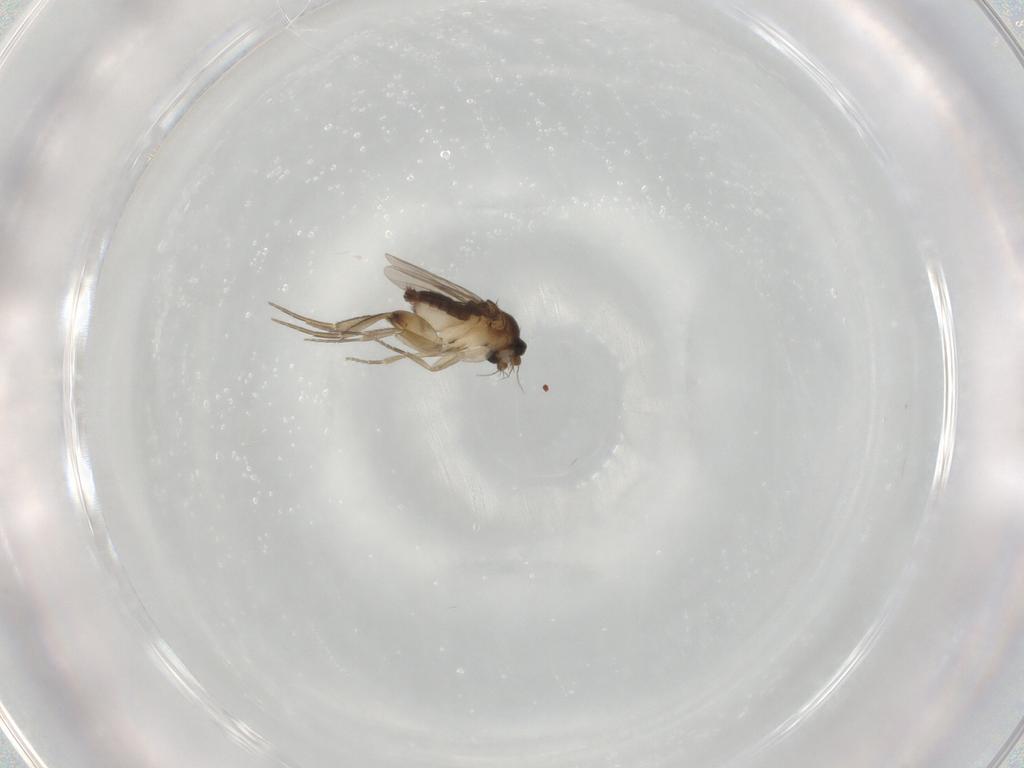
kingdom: Animalia
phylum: Arthropoda
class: Insecta
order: Diptera
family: Phoridae
